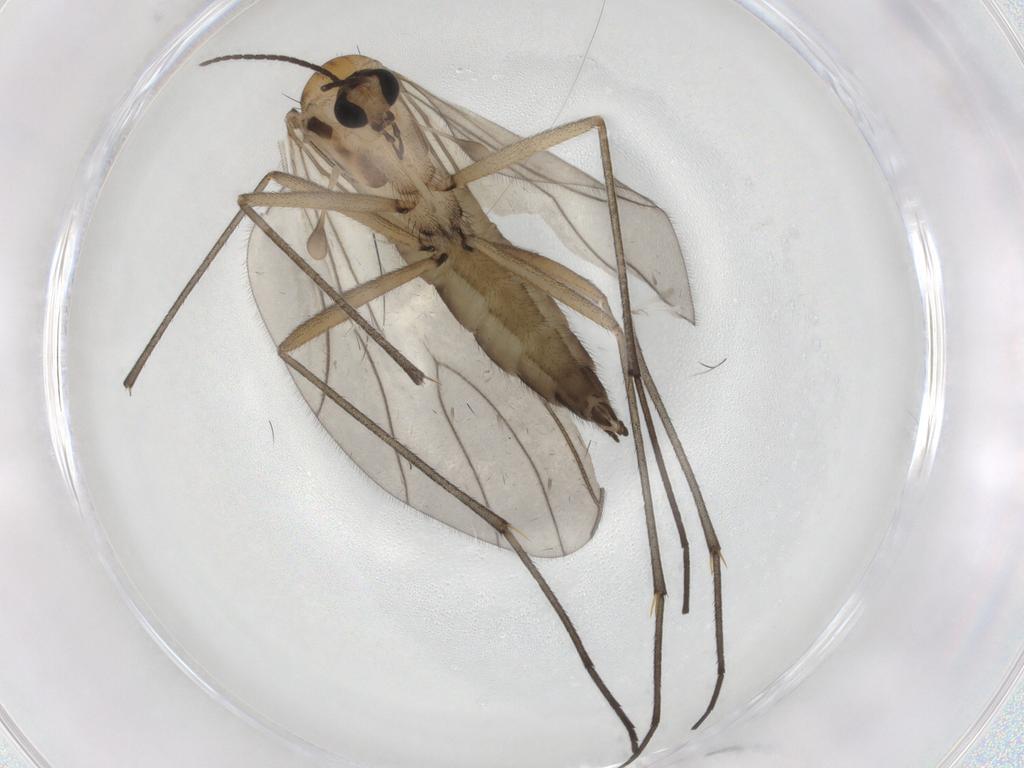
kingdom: Animalia
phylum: Arthropoda
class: Insecta
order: Diptera
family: Sciaridae
